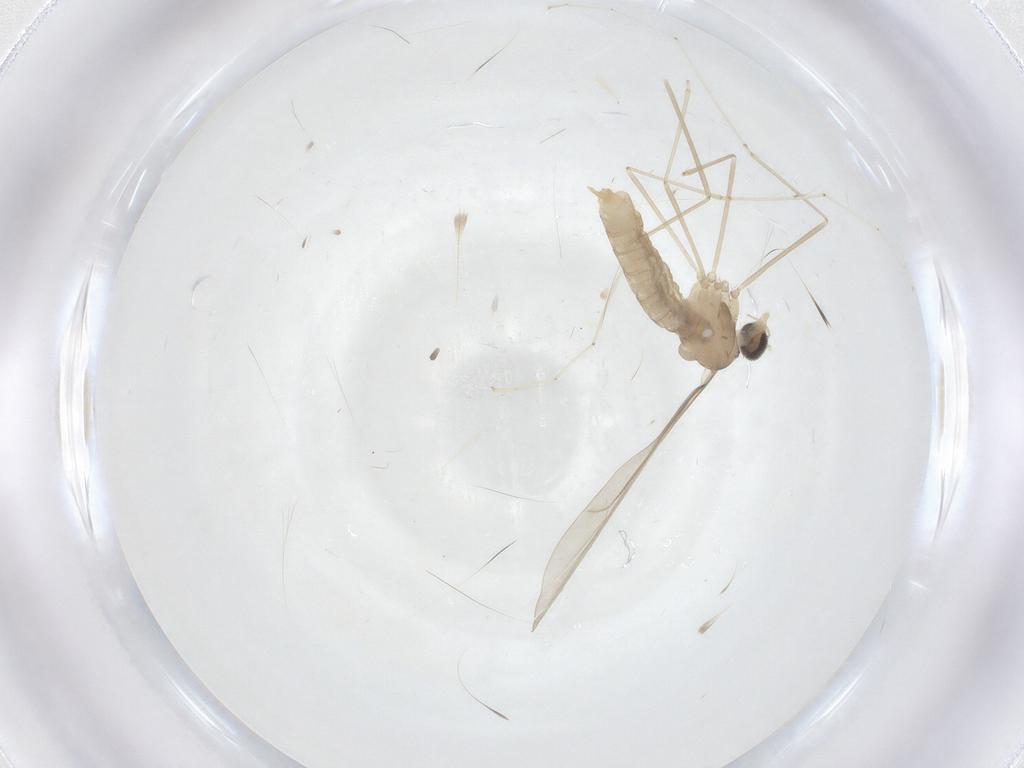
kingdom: Animalia
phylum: Arthropoda
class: Insecta
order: Diptera
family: Cecidomyiidae
